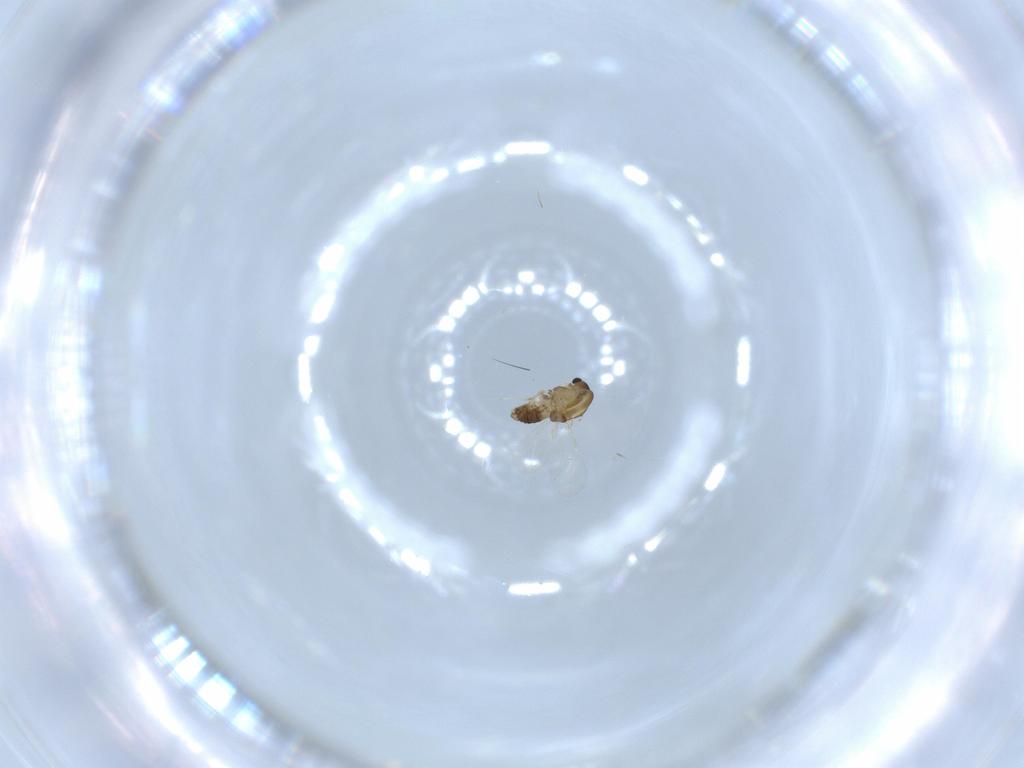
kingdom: Animalia
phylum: Arthropoda
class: Insecta
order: Diptera
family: Chironomidae
